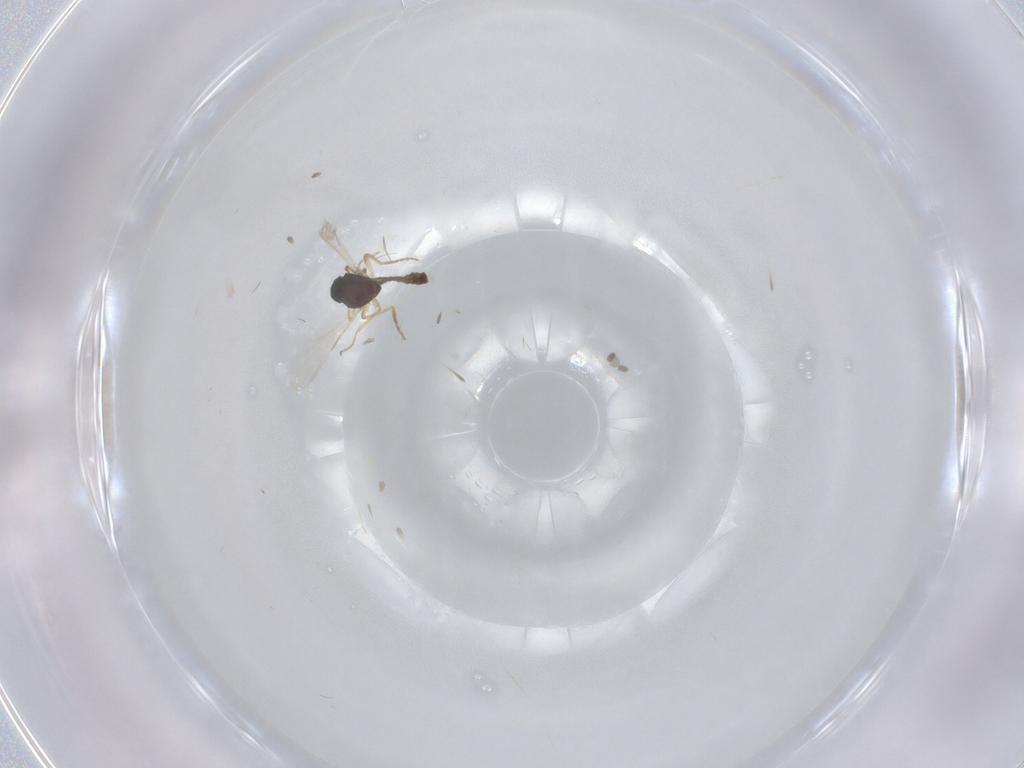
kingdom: Animalia
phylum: Arthropoda
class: Insecta
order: Diptera
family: Ceratopogonidae
